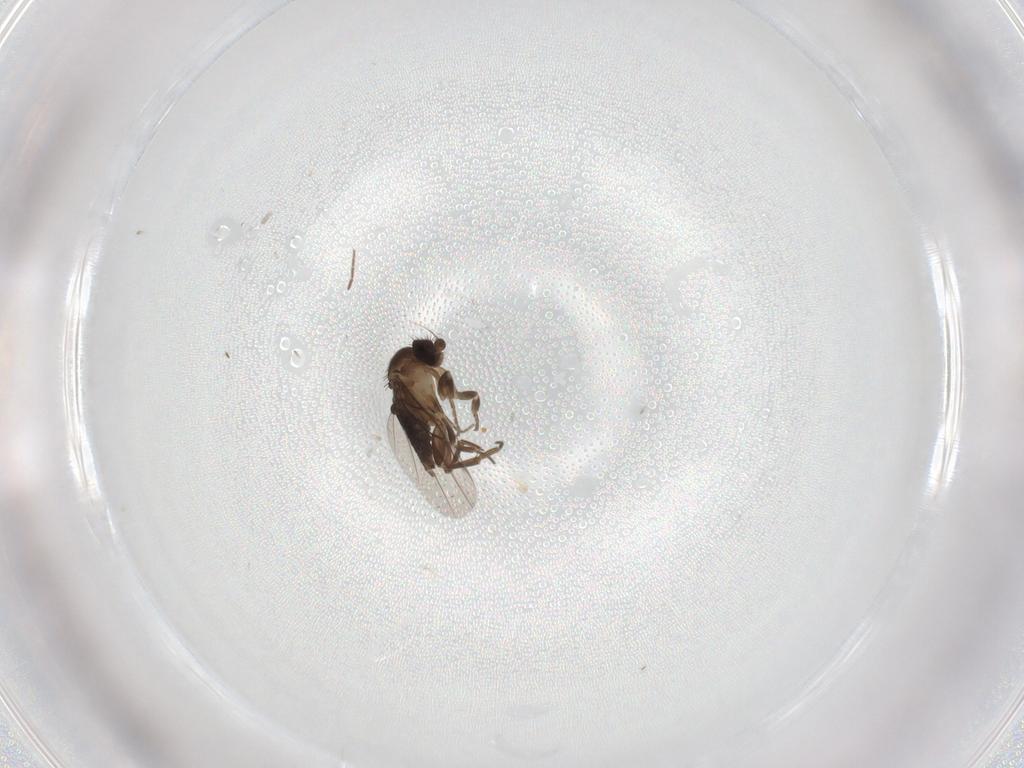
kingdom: Animalia
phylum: Arthropoda
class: Insecta
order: Diptera
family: Phoridae
